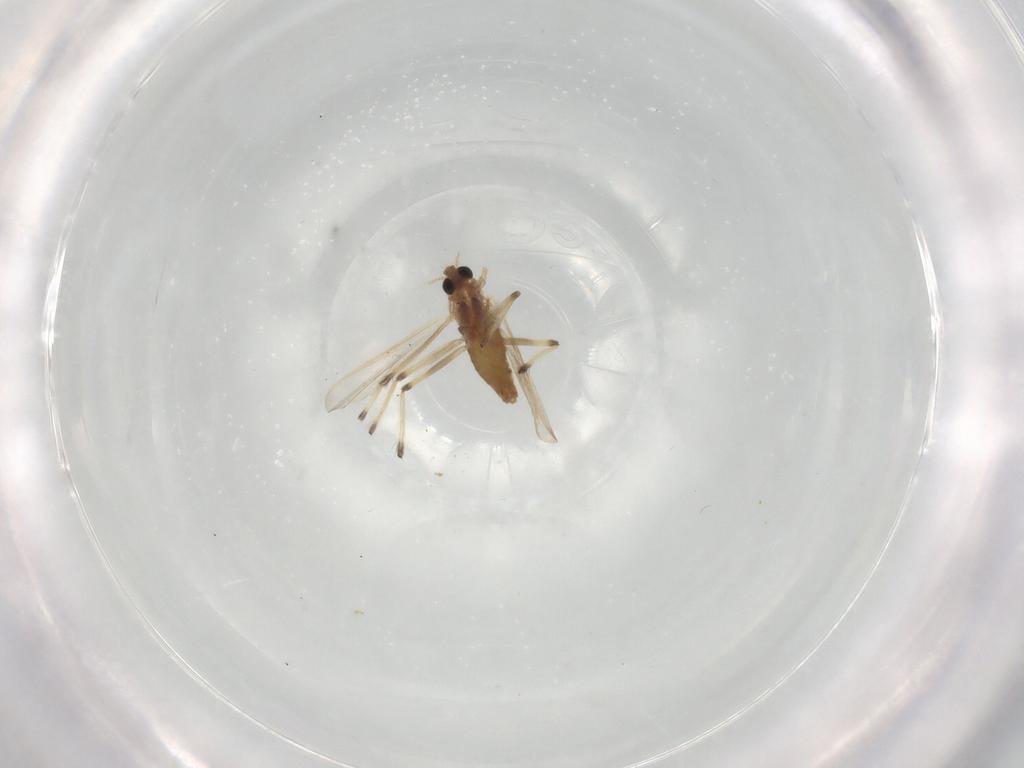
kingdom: Animalia
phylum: Arthropoda
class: Insecta
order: Diptera
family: Chironomidae
